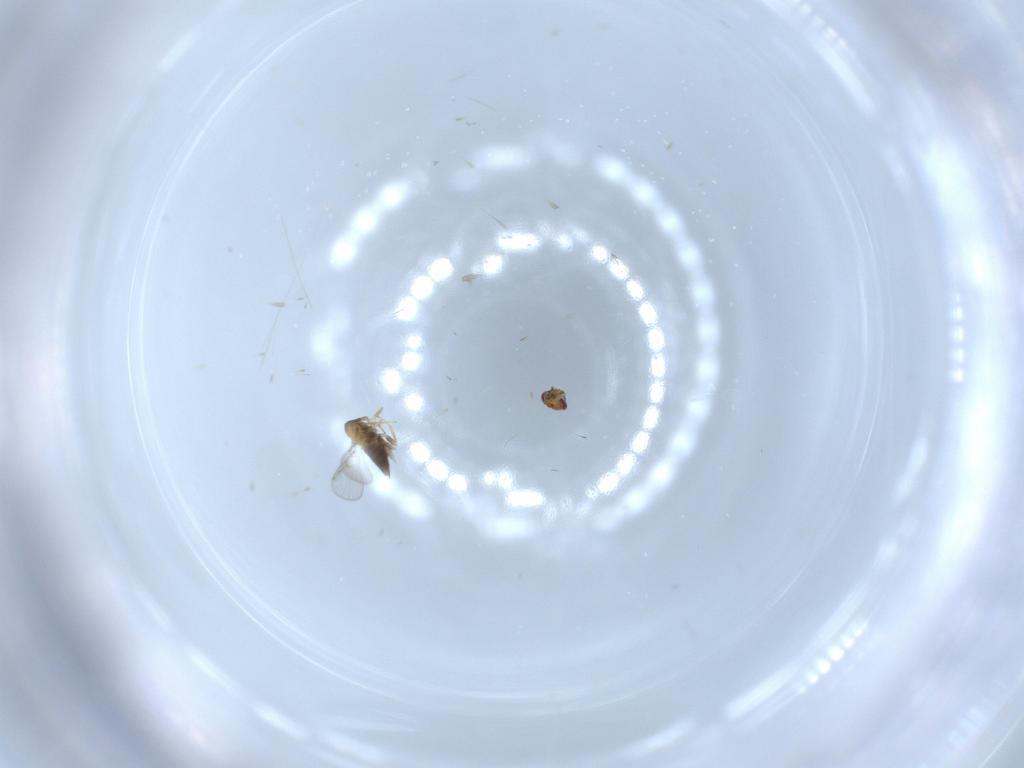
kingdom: Animalia
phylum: Arthropoda
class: Insecta
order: Hymenoptera
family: Trichogrammatidae
